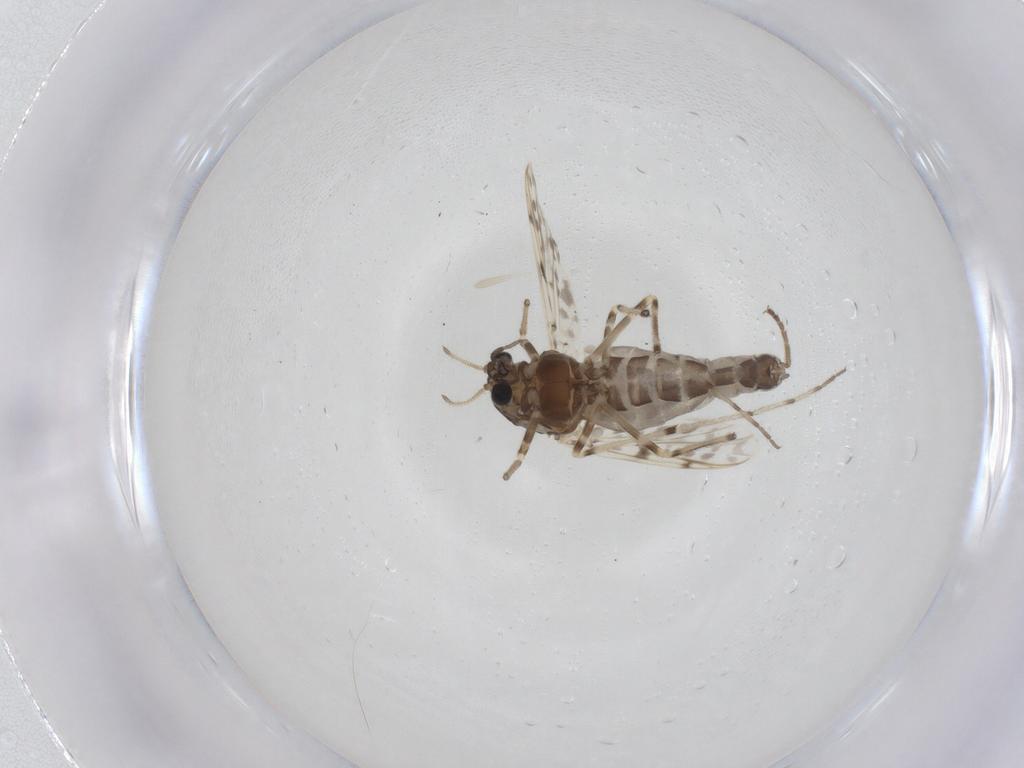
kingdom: Animalia
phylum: Arthropoda
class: Insecta
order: Diptera
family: Chironomidae
